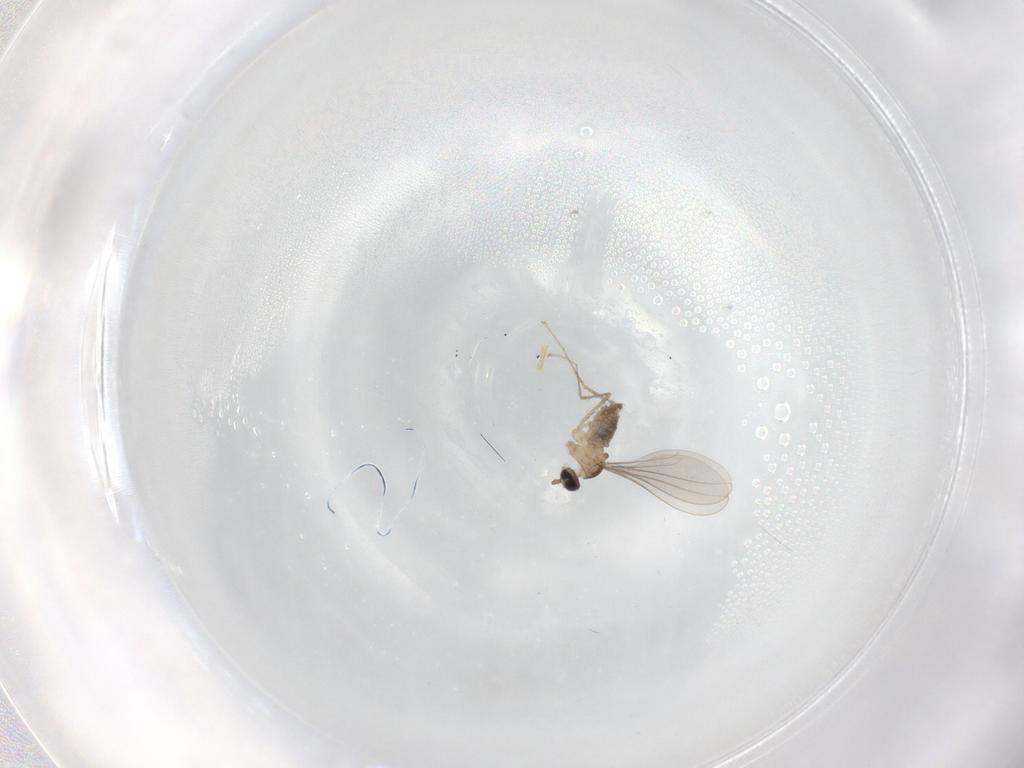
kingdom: Animalia
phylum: Arthropoda
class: Insecta
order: Diptera
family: Cecidomyiidae
